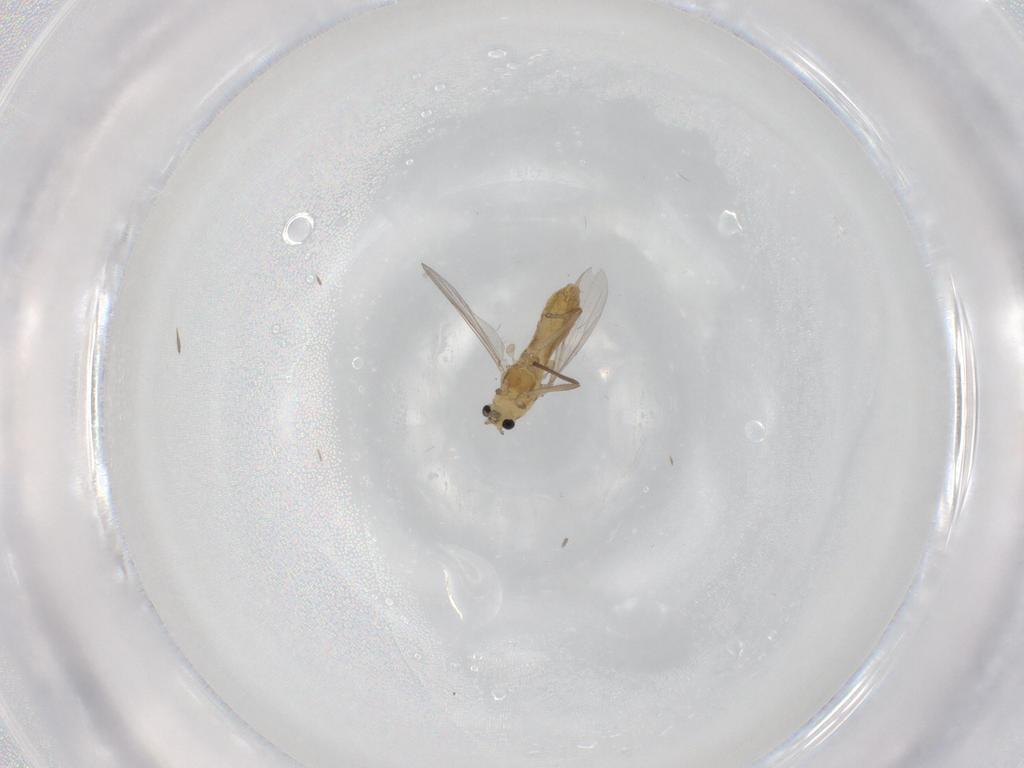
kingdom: Animalia
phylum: Arthropoda
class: Insecta
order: Diptera
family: Chironomidae
